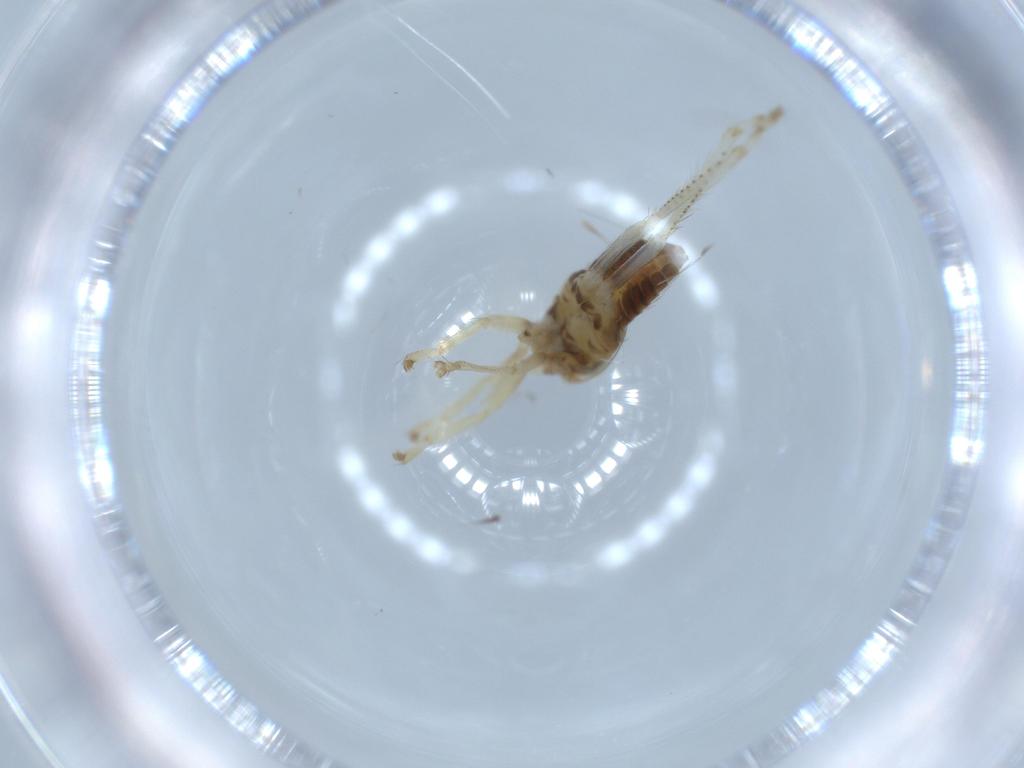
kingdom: Animalia
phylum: Arthropoda
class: Insecta
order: Hemiptera
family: Cicadellidae
